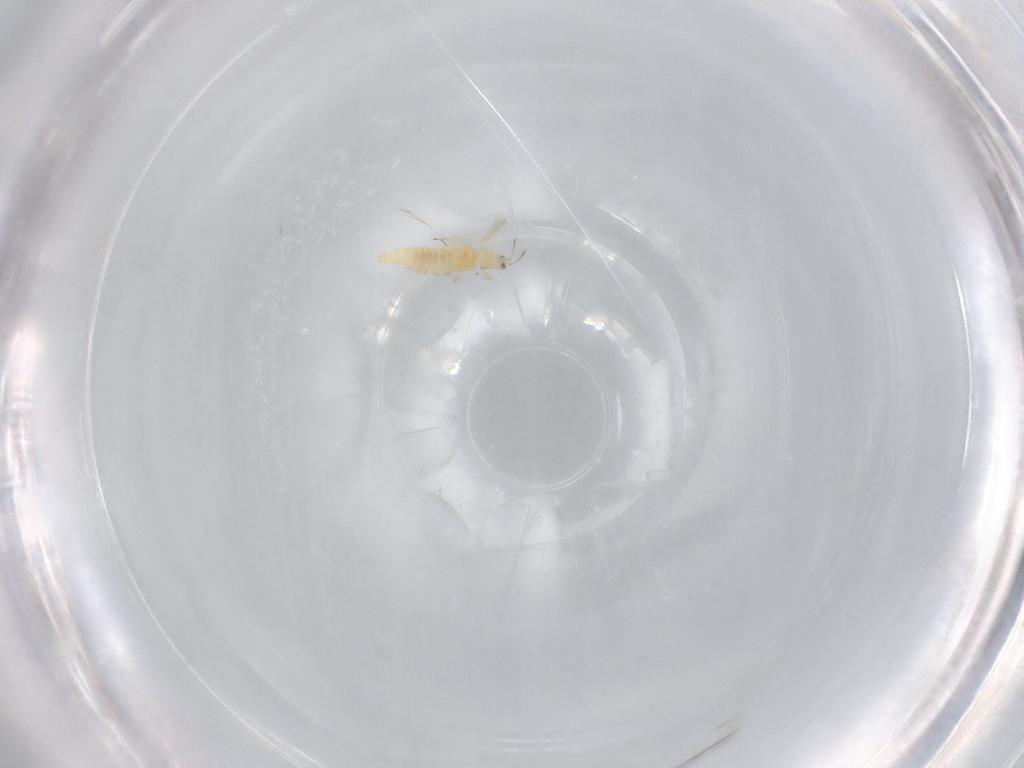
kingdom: Animalia
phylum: Arthropoda
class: Insecta
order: Thysanoptera
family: Thripidae
